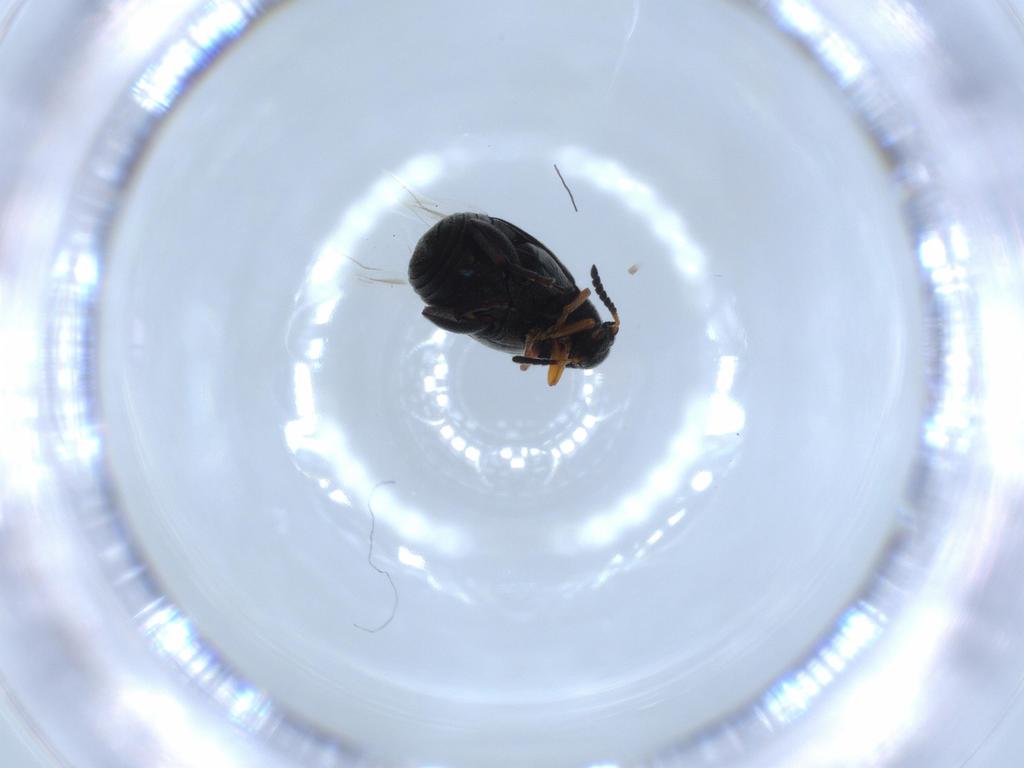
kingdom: Animalia
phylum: Arthropoda
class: Insecta
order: Coleoptera
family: Chrysomelidae
